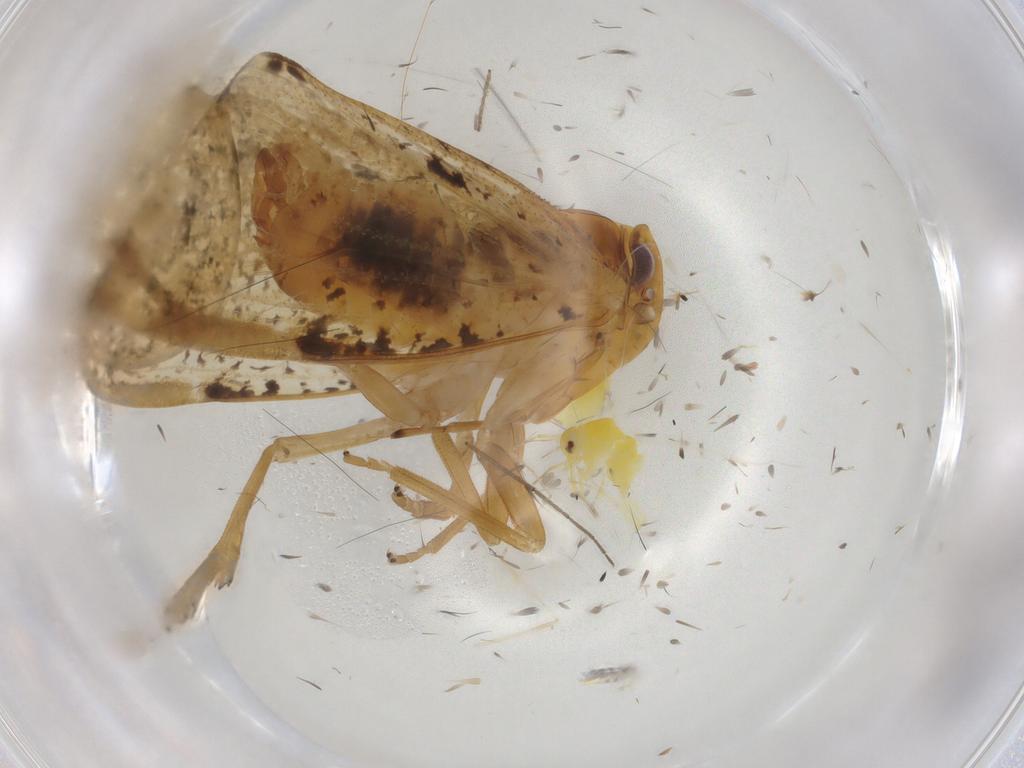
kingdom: Animalia
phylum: Arthropoda
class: Insecta
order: Hemiptera
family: Cixiidae
